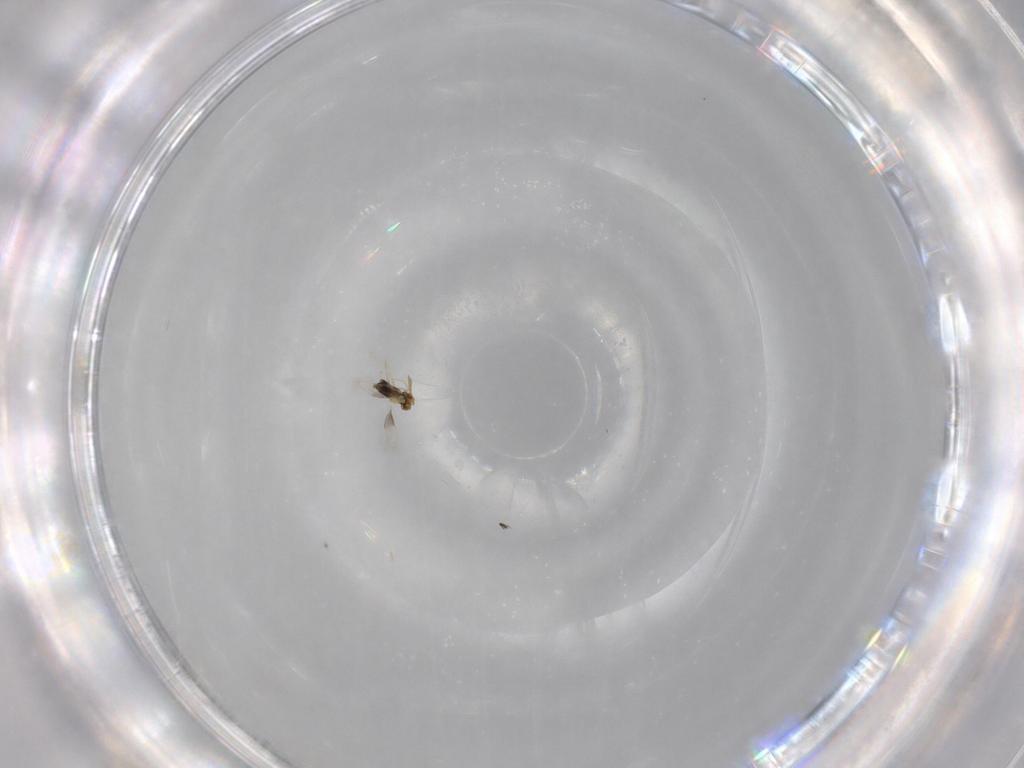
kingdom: Animalia
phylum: Arthropoda
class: Insecta
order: Hymenoptera
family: Aphelinidae
